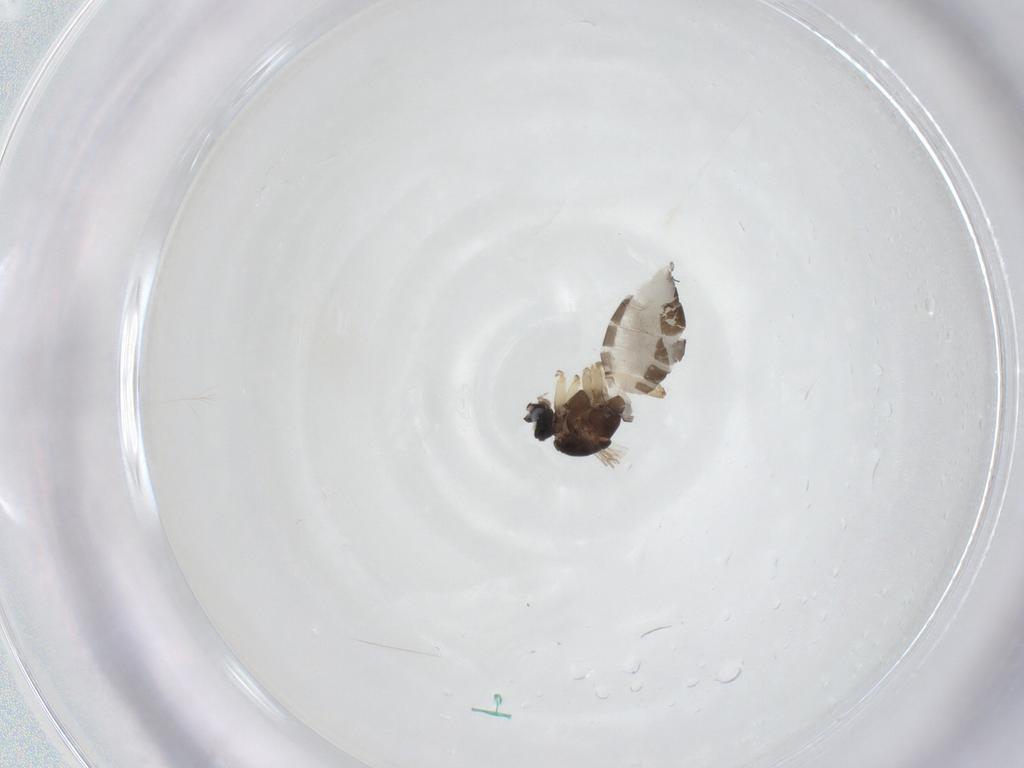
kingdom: Animalia
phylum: Arthropoda
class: Insecta
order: Diptera
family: Sciaridae
